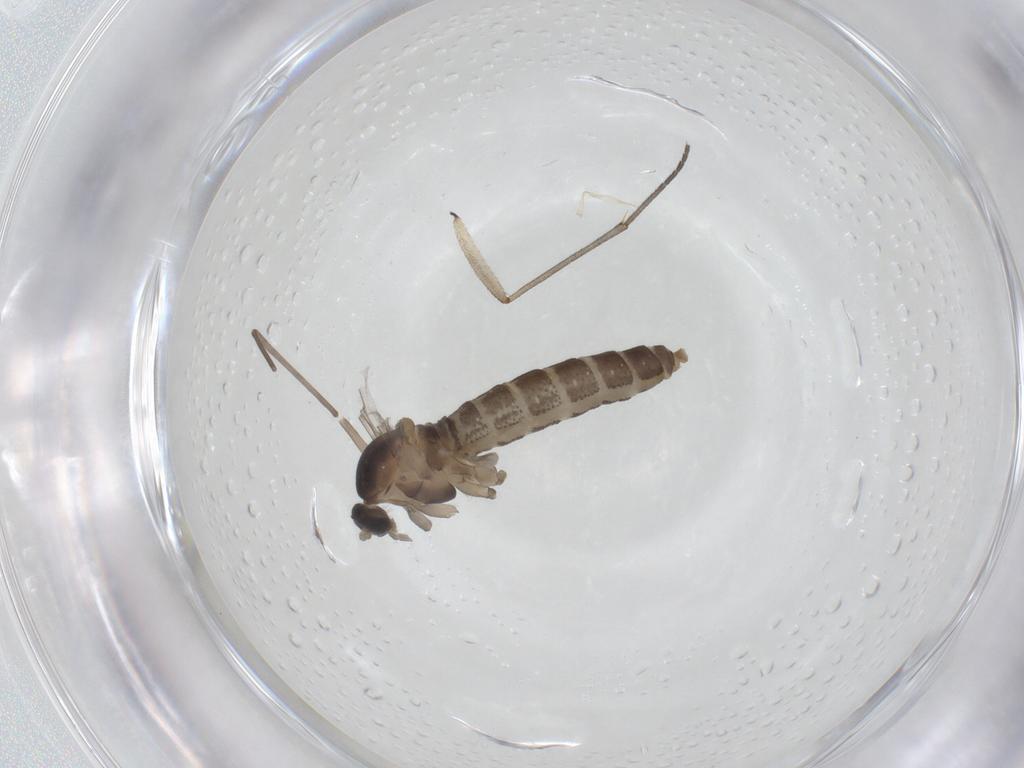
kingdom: Animalia
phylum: Arthropoda
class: Insecta
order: Diptera
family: Cecidomyiidae
